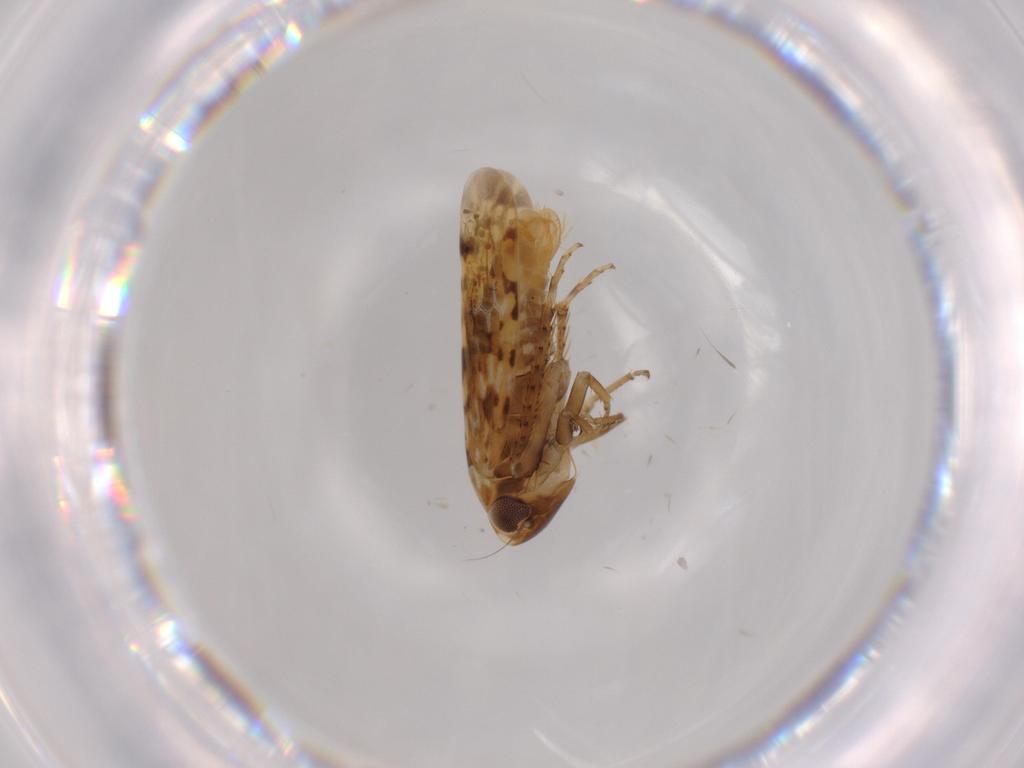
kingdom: Animalia
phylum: Arthropoda
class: Insecta
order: Hemiptera
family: Cicadellidae
